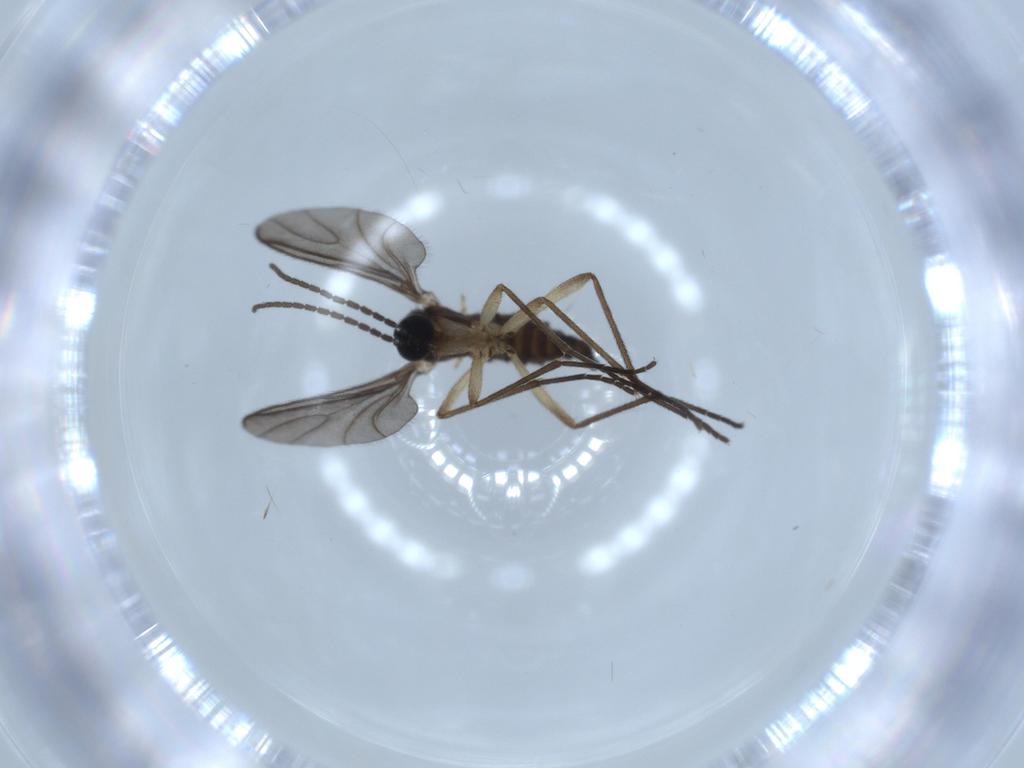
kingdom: Animalia
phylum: Arthropoda
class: Insecta
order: Diptera
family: Sciaridae
